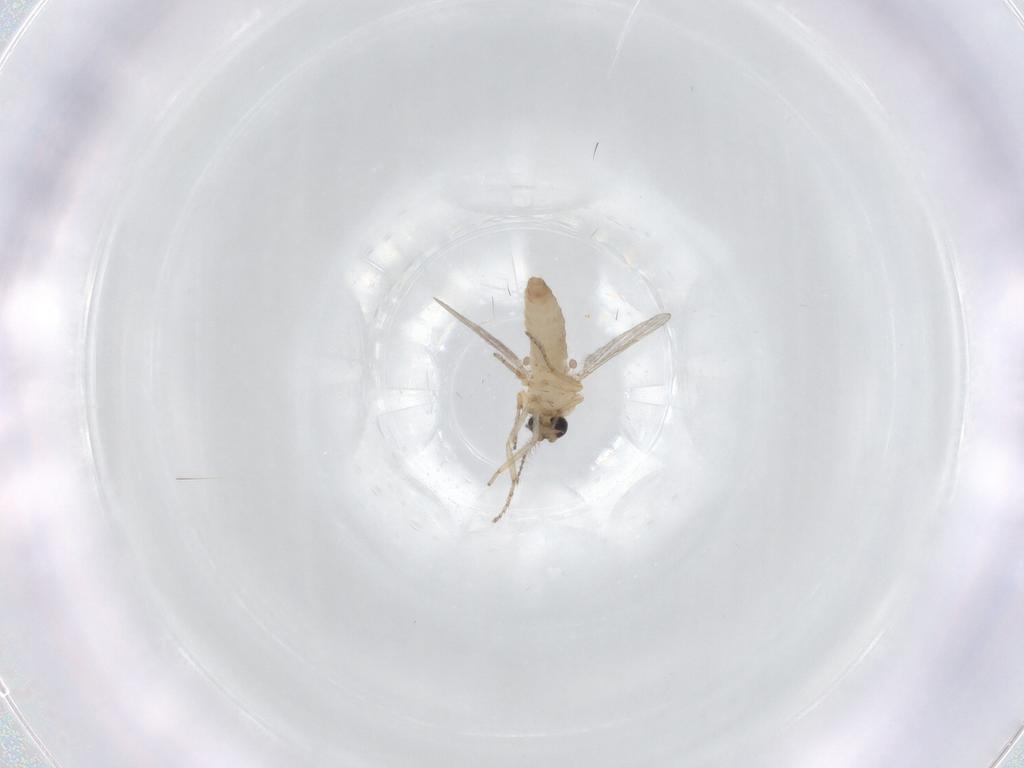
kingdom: Animalia
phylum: Arthropoda
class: Insecta
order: Diptera
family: Ceratopogonidae
